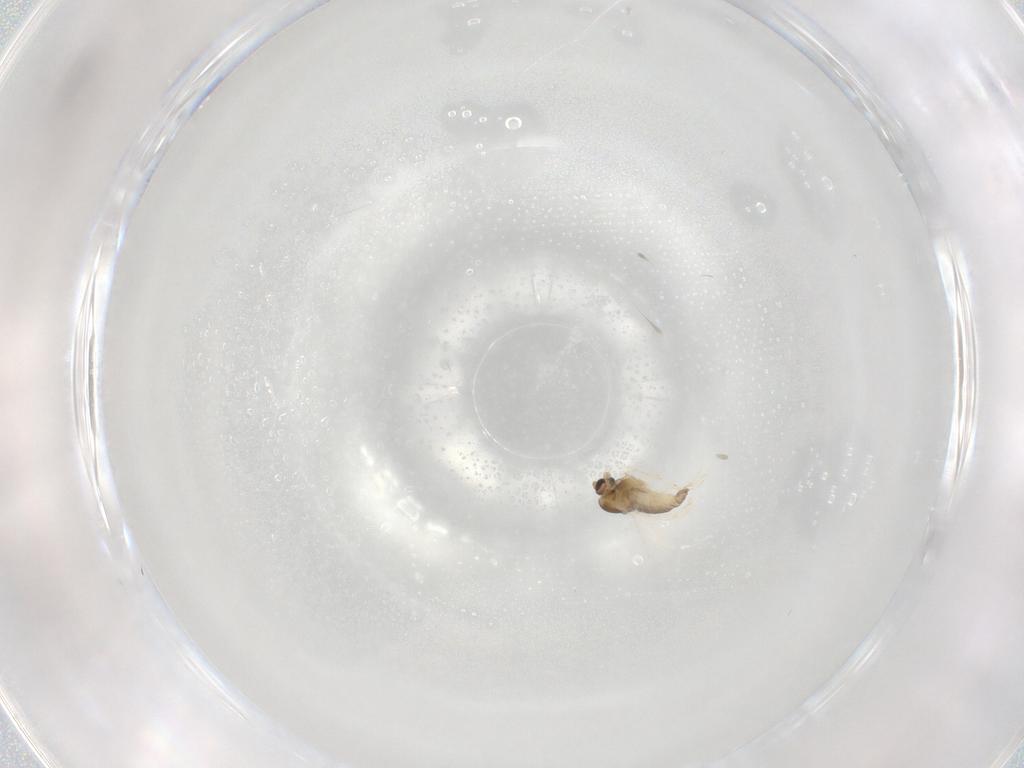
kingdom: Animalia
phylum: Arthropoda
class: Insecta
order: Diptera
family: Chironomidae
